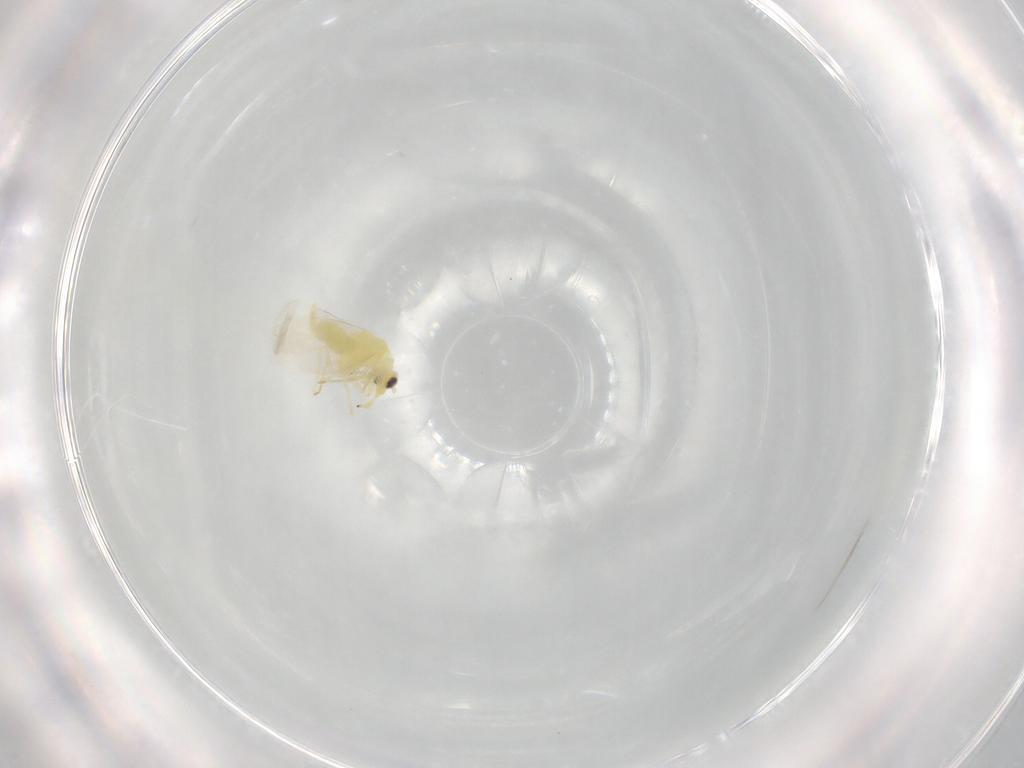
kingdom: Animalia
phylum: Arthropoda
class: Insecta
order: Hemiptera
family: Aleyrodidae
